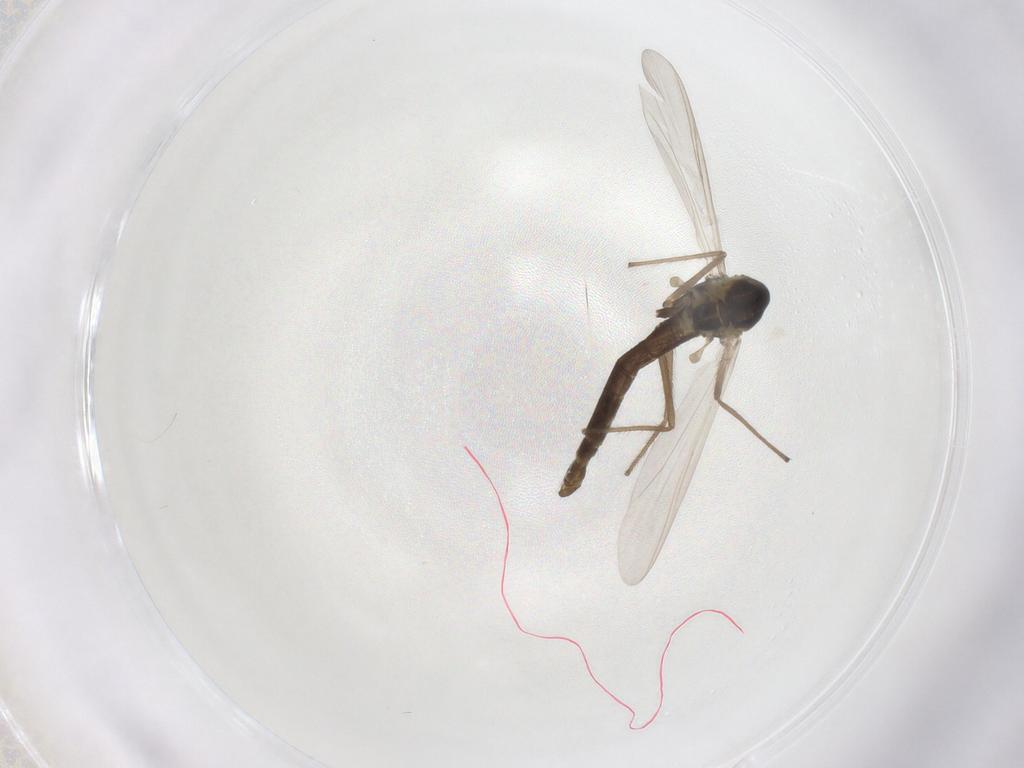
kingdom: Animalia
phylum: Arthropoda
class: Insecta
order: Diptera
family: Chironomidae
